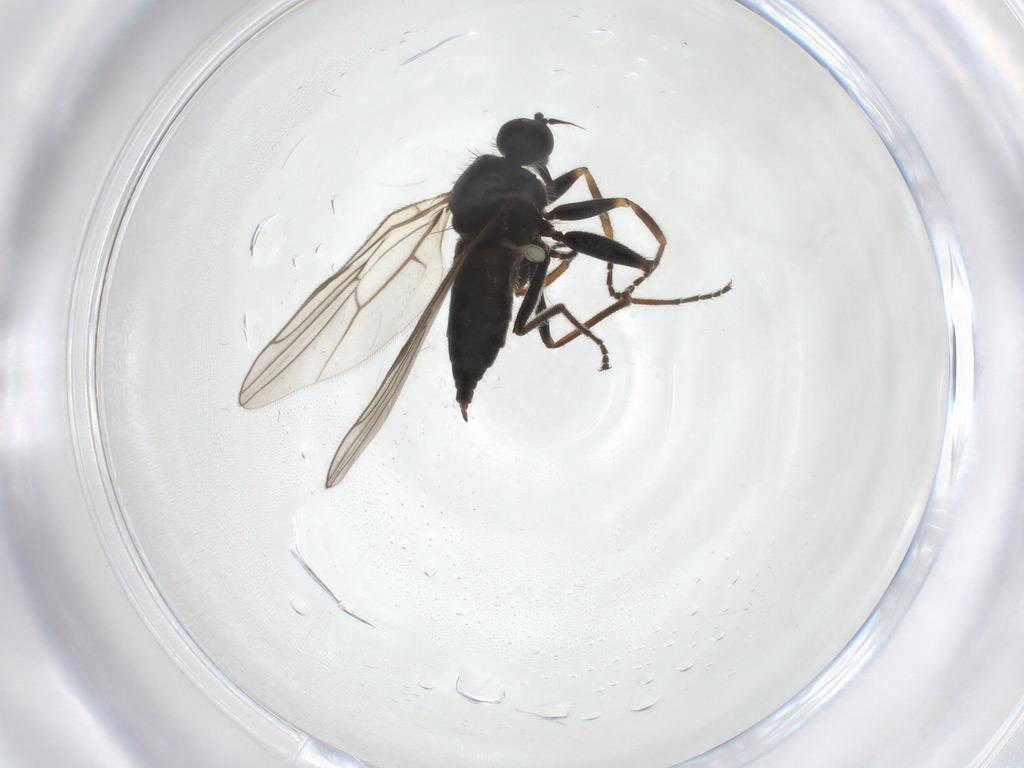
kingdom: Animalia
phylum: Arthropoda
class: Insecta
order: Diptera
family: Hybotidae
